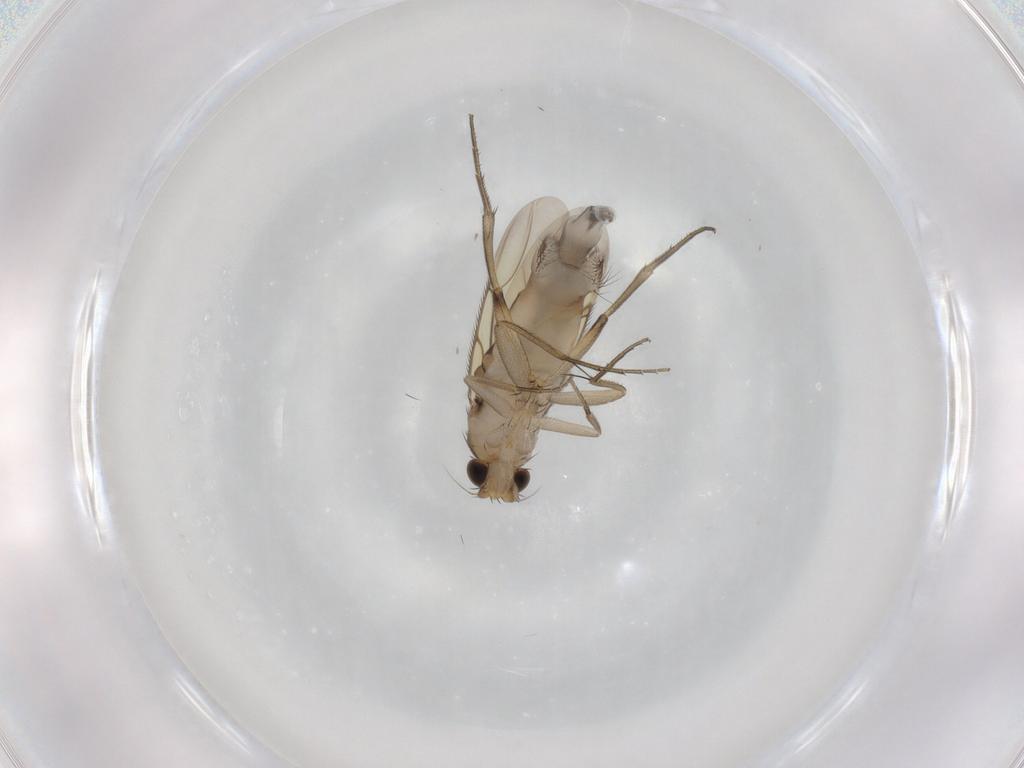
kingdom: Animalia
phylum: Arthropoda
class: Insecta
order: Diptera
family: Phoridae
